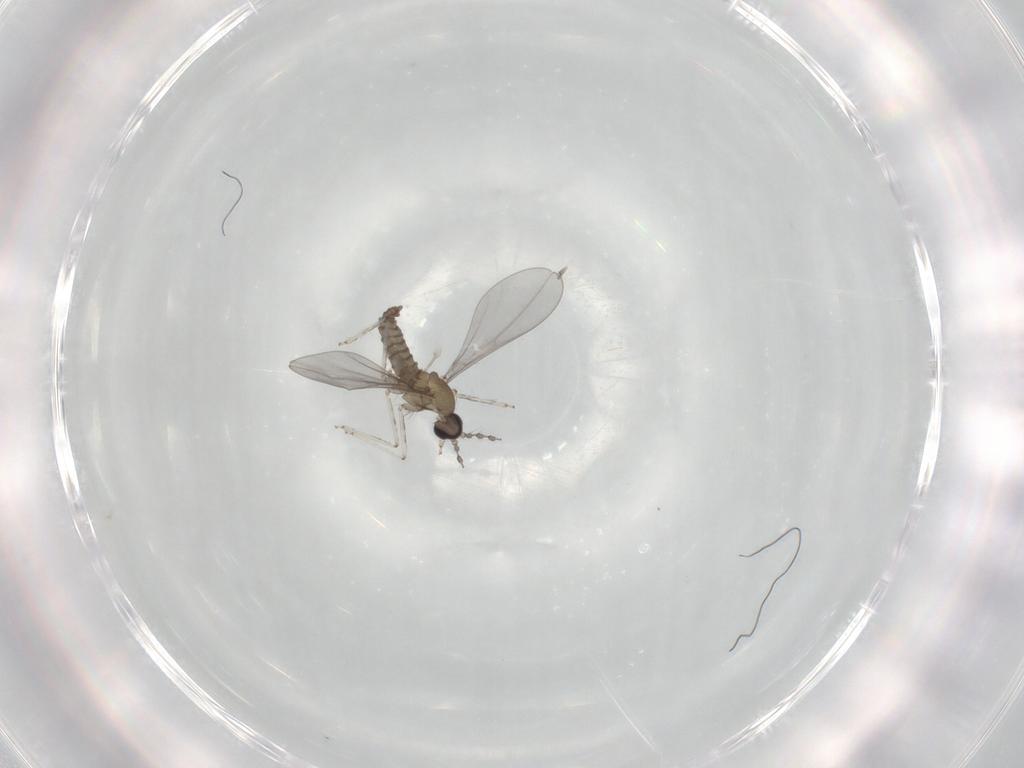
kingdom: Animalia
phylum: Arthropoda
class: Insecta
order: Diptera
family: Cecidomyiidae
